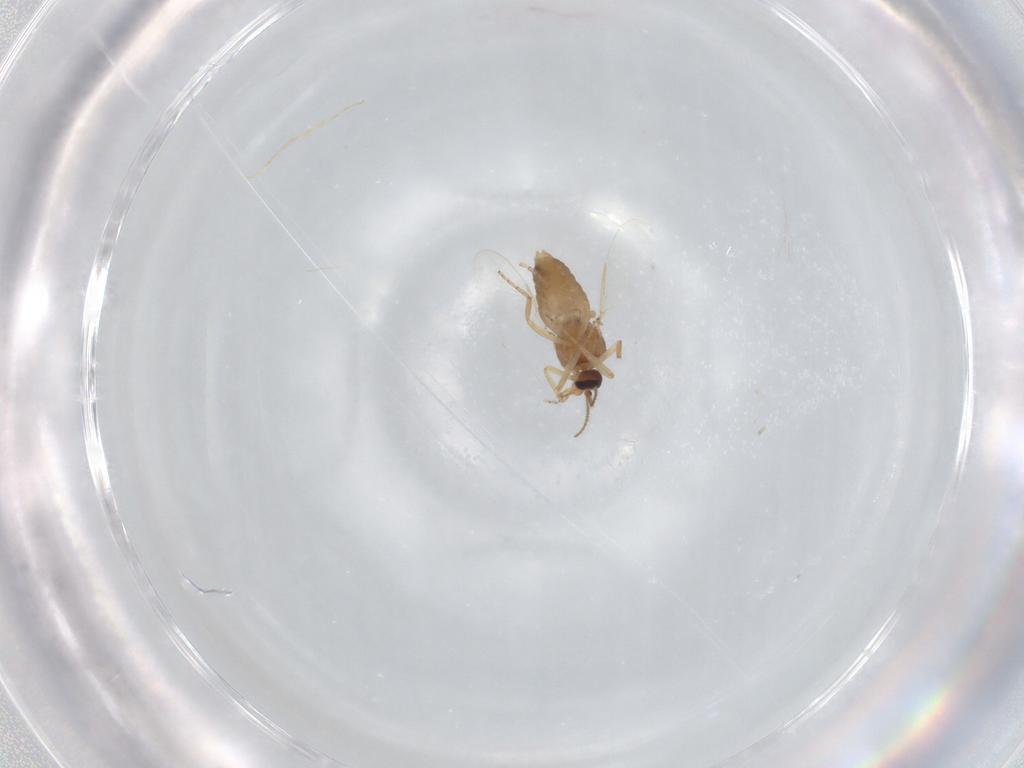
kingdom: Animalia
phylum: Arthropoda
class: Insecta
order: Diptera
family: Ceratopogonidae
